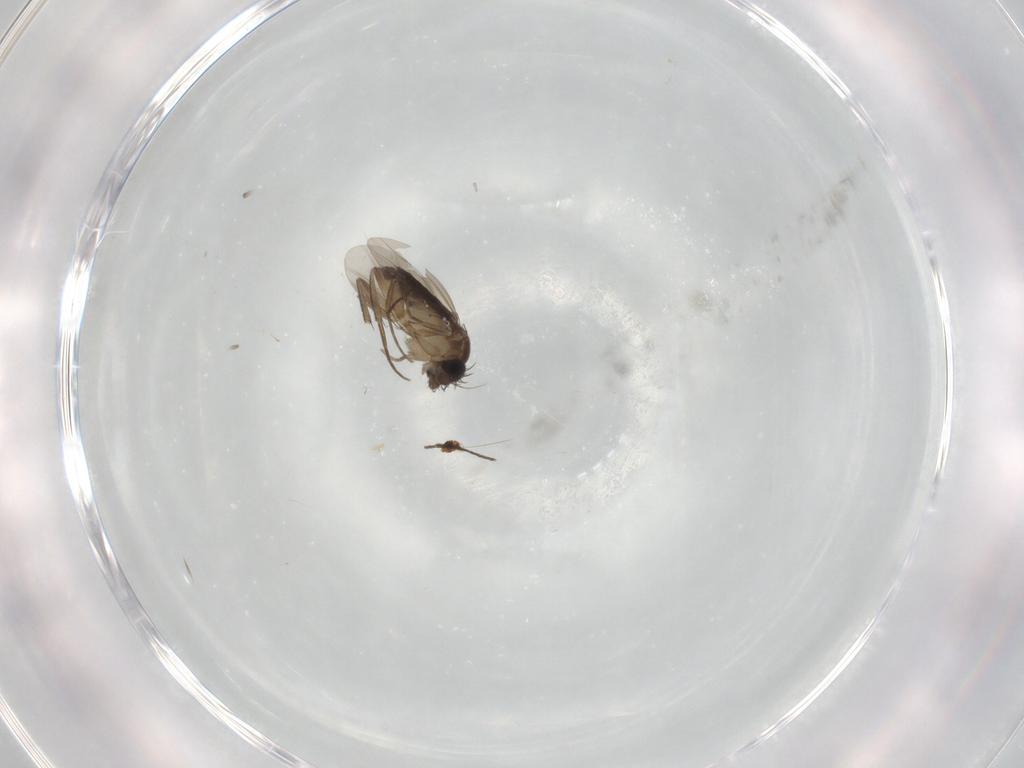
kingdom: Animalia
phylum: Arthropoda
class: Insecta
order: Diptera
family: Phoridae
